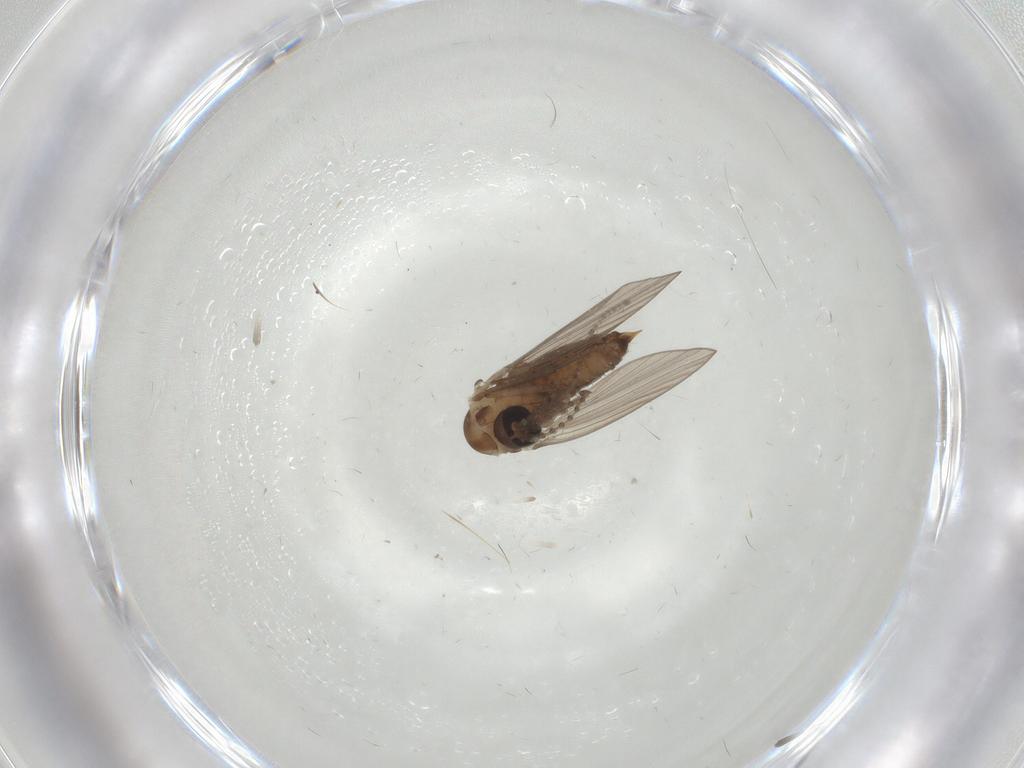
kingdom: Animalia
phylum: Arthropoda
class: Insecta
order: Diptera
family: Psychodidae
